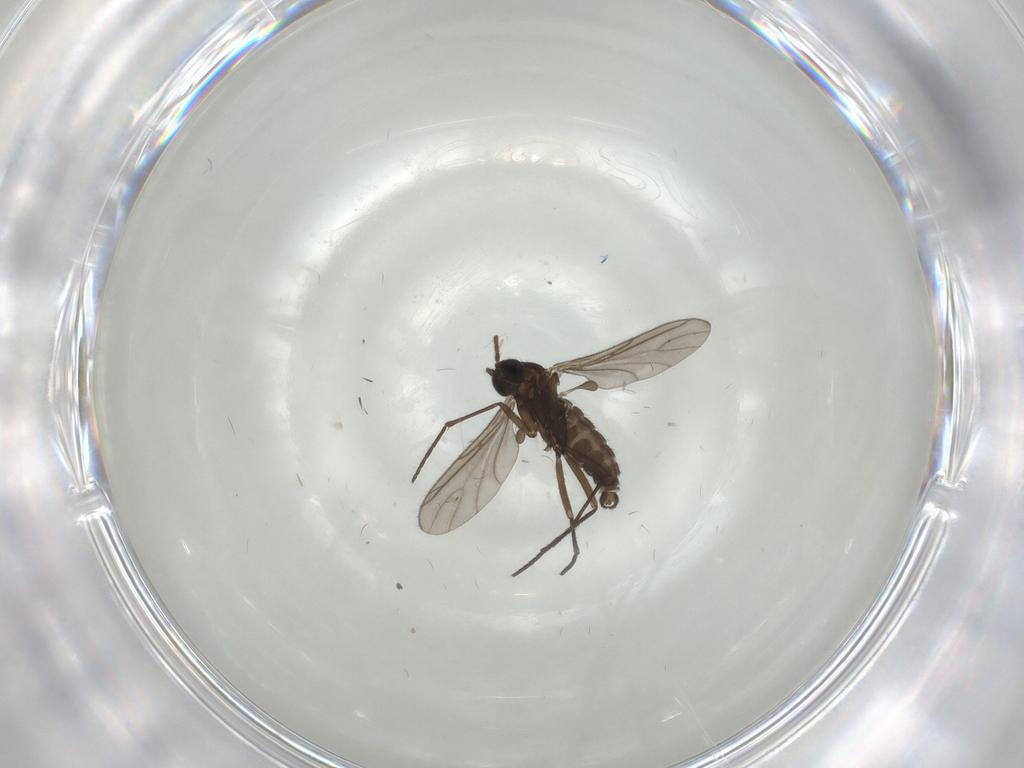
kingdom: Animalia
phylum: Arthropoda
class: Insecta
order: Diptera
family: Sciaridae
